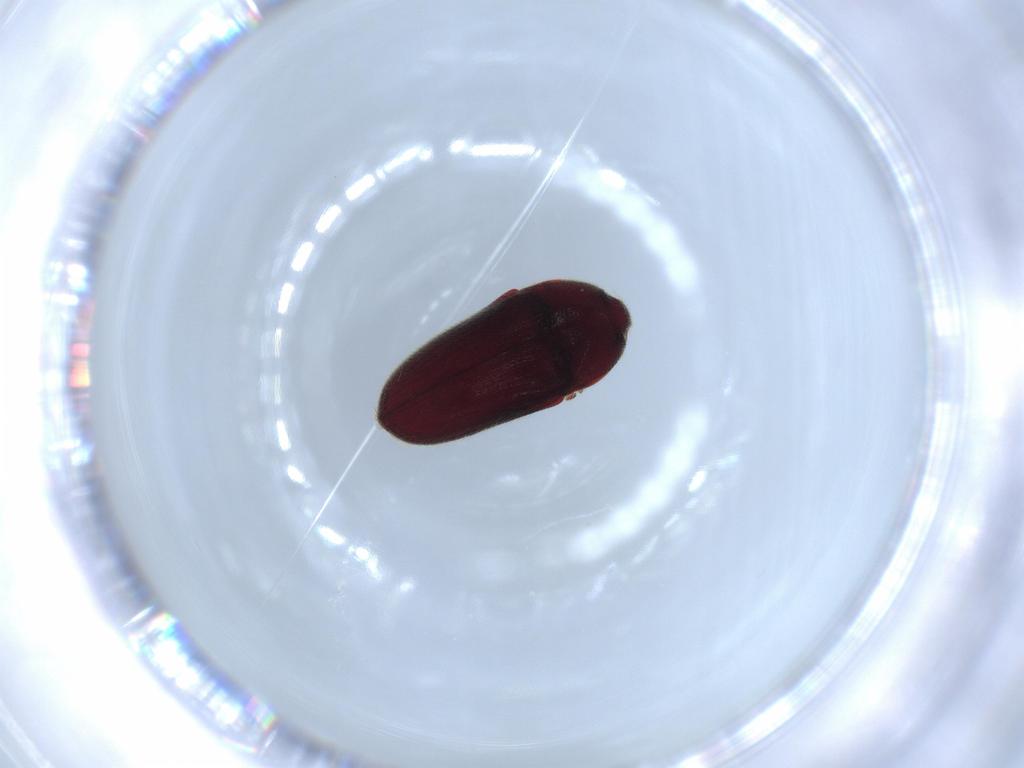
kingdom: Animalia
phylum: Arthropoda
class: Insecta
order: Coleoptera
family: Throscidae
